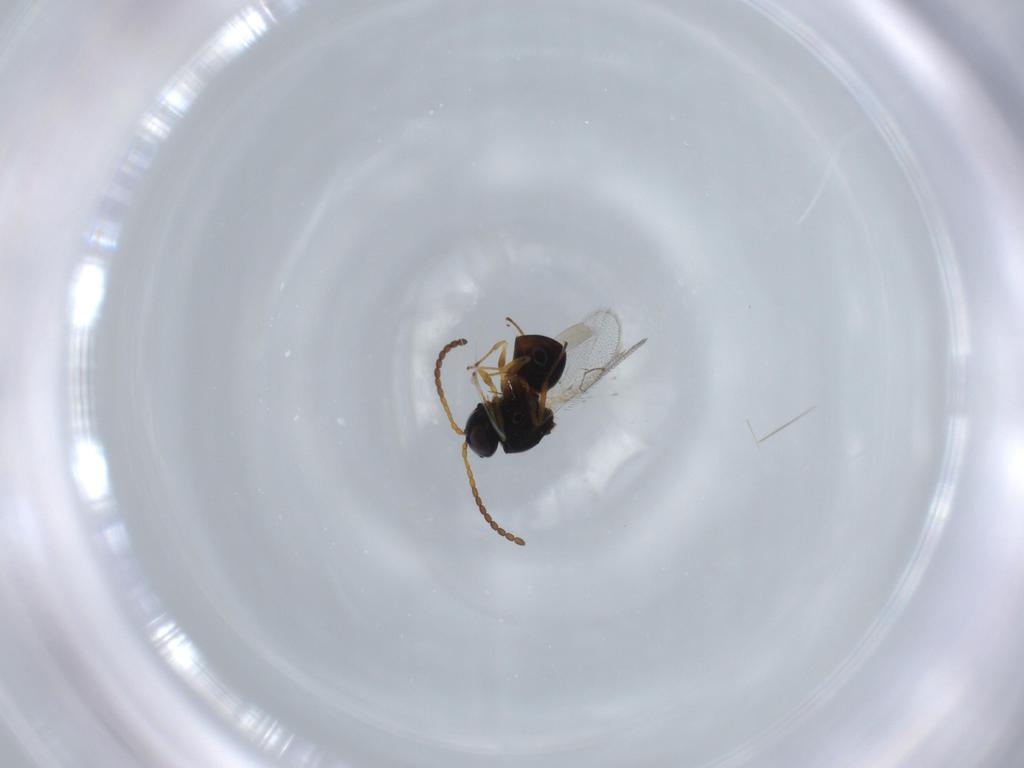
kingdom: Animalia
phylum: Arthropoda
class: Insecta
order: Hymenoptera
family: Figitidae
